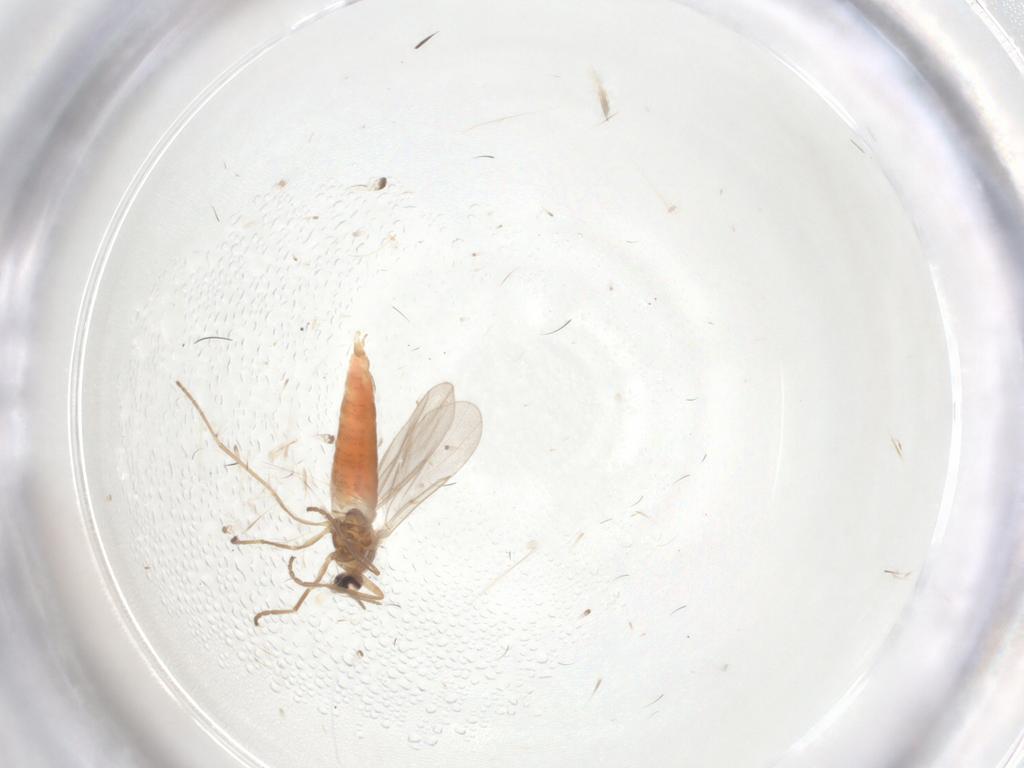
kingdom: Animalia
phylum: Arthropoda
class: Insecta
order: Diptera
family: Cecidomyiidae
